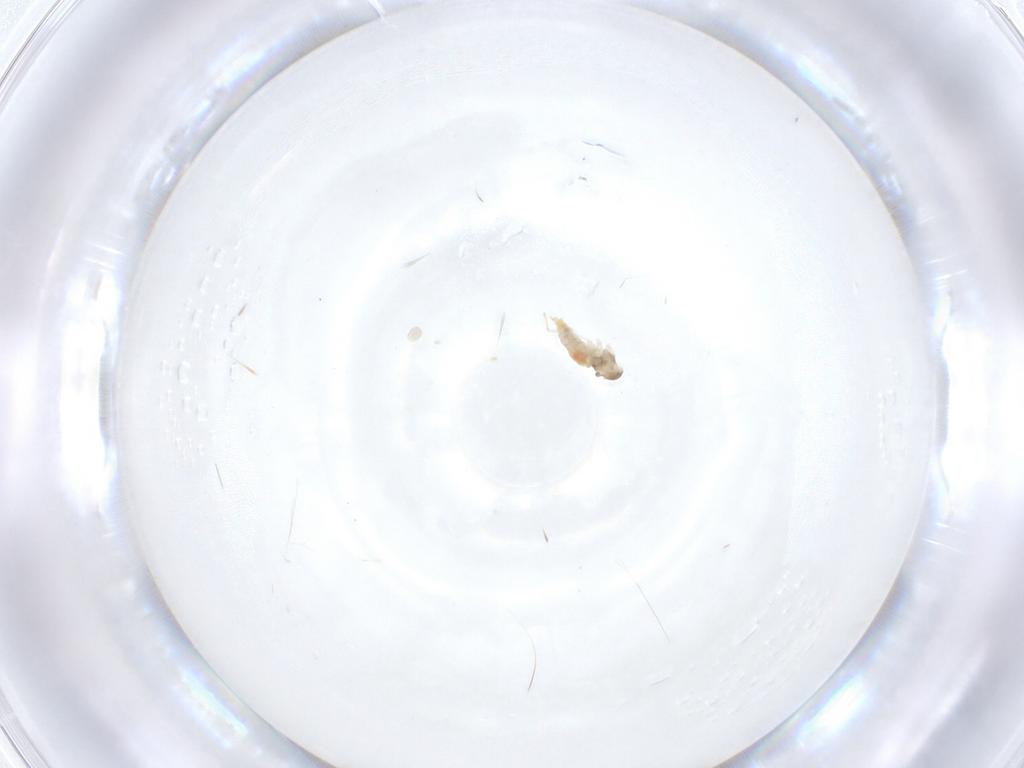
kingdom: Animalia
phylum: Arthropoda
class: Insecta
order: Diptera
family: Cecidomyiidae
